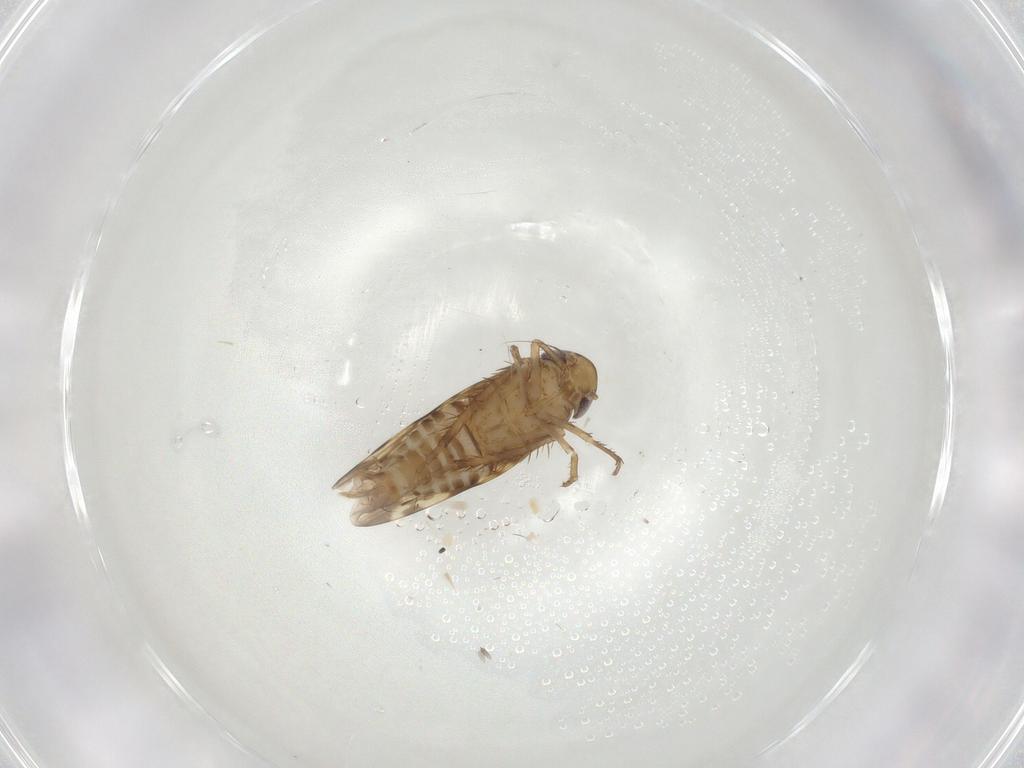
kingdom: Animalia
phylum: Arthropoda
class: Insecta
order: Hemiptera
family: Cicadellidae
